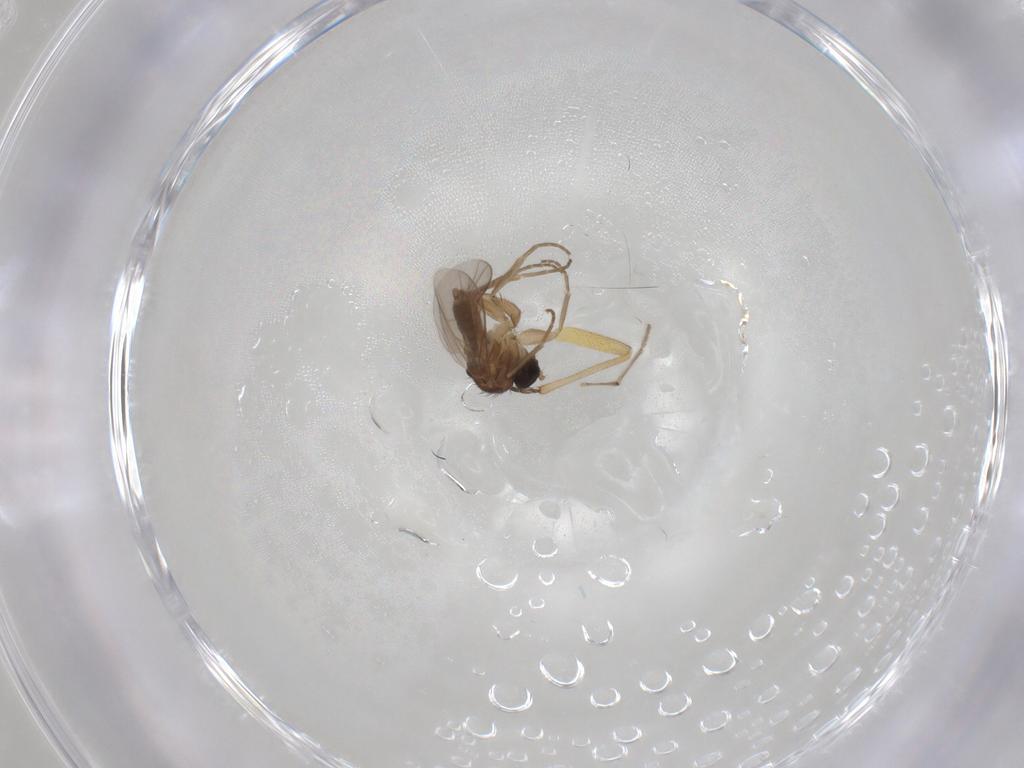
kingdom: Animalia
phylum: Arthropoda
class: Insecta
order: Diptera
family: Hybotidae
